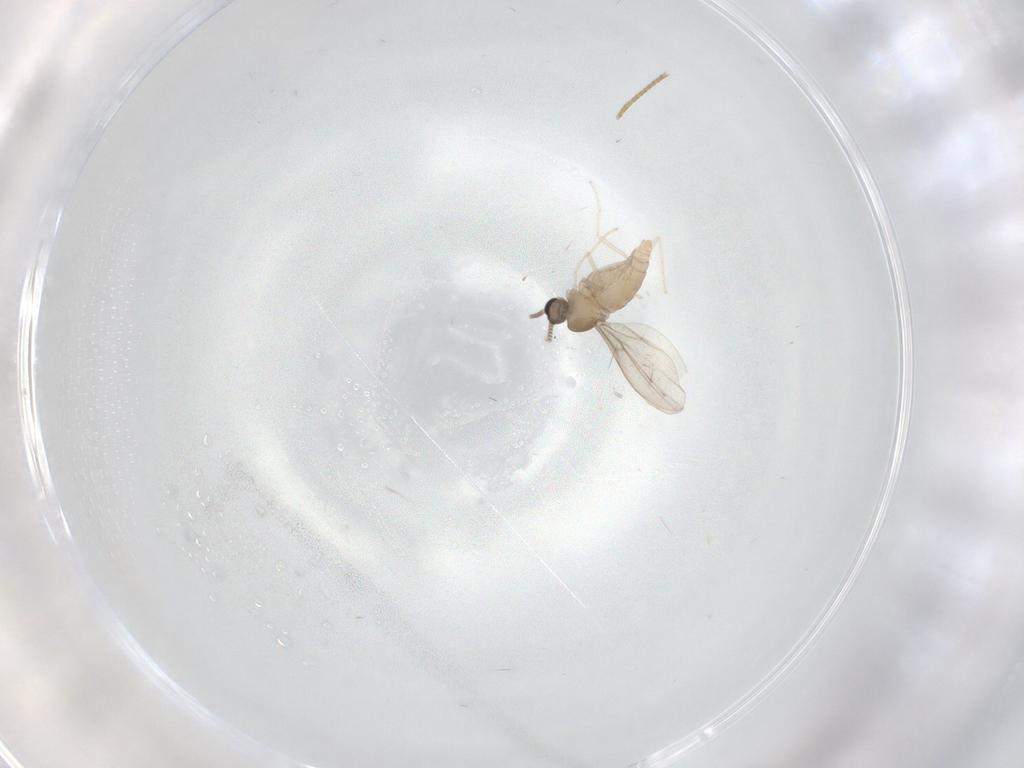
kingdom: Animalia
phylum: Arthropoda
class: Insecta
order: Diptera
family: Cecidomyiidae
